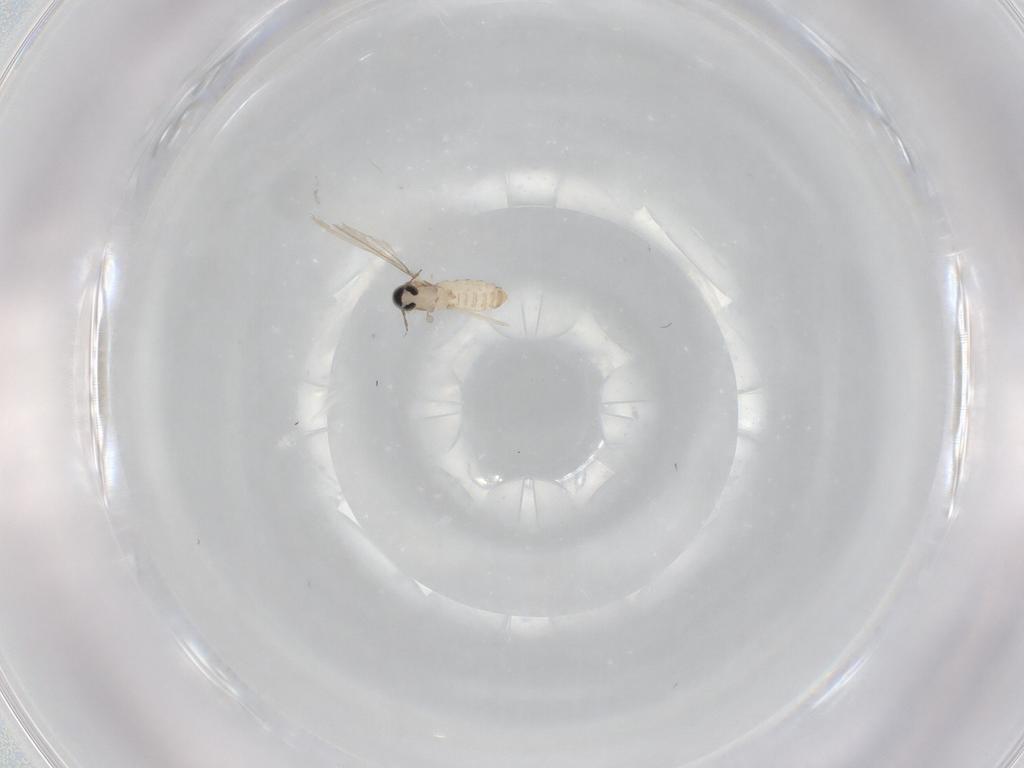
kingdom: Animalia
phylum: Arthropoda
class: Insecta
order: Diptera
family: Cecidomyiidae
